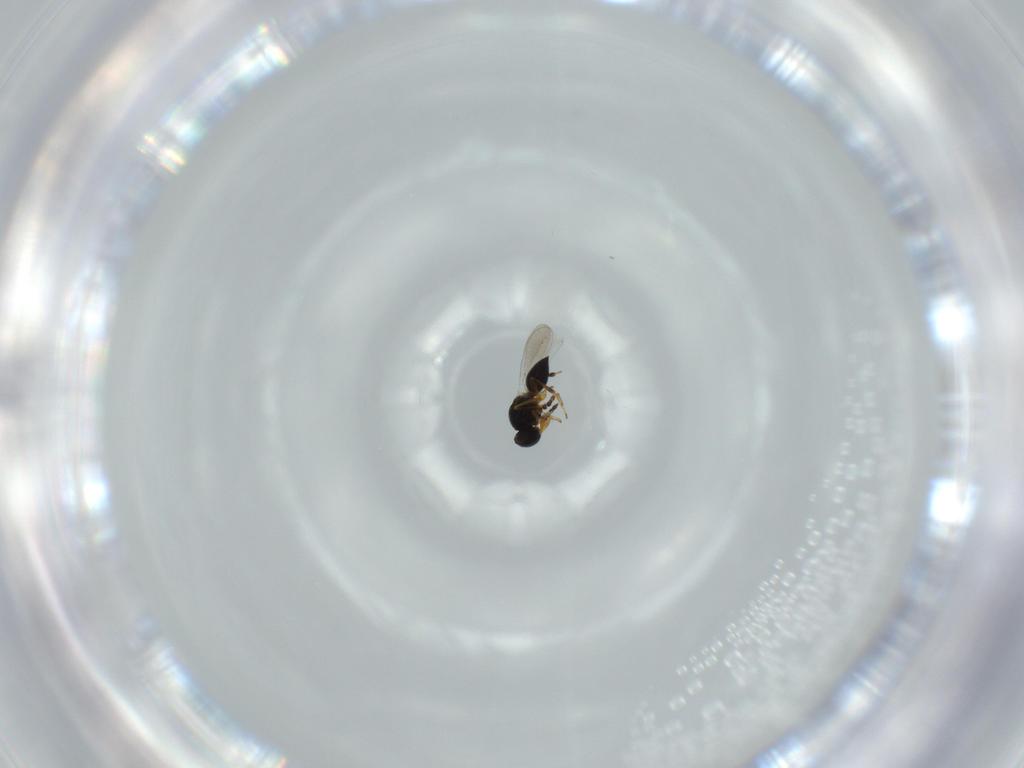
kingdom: Animalia
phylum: Arthropoda
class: Insecta
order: Hymenoptera
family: Platygastridae
